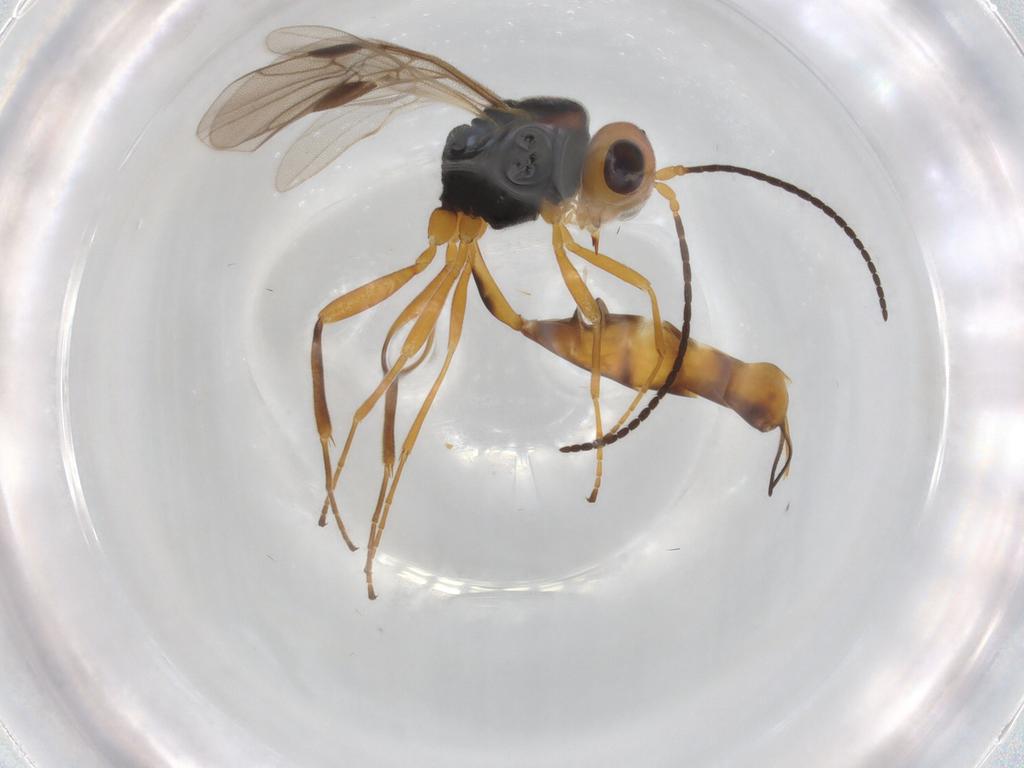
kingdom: Animalia
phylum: Arthropoda
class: Insecta
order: Hymenoptera
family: Braconidae
